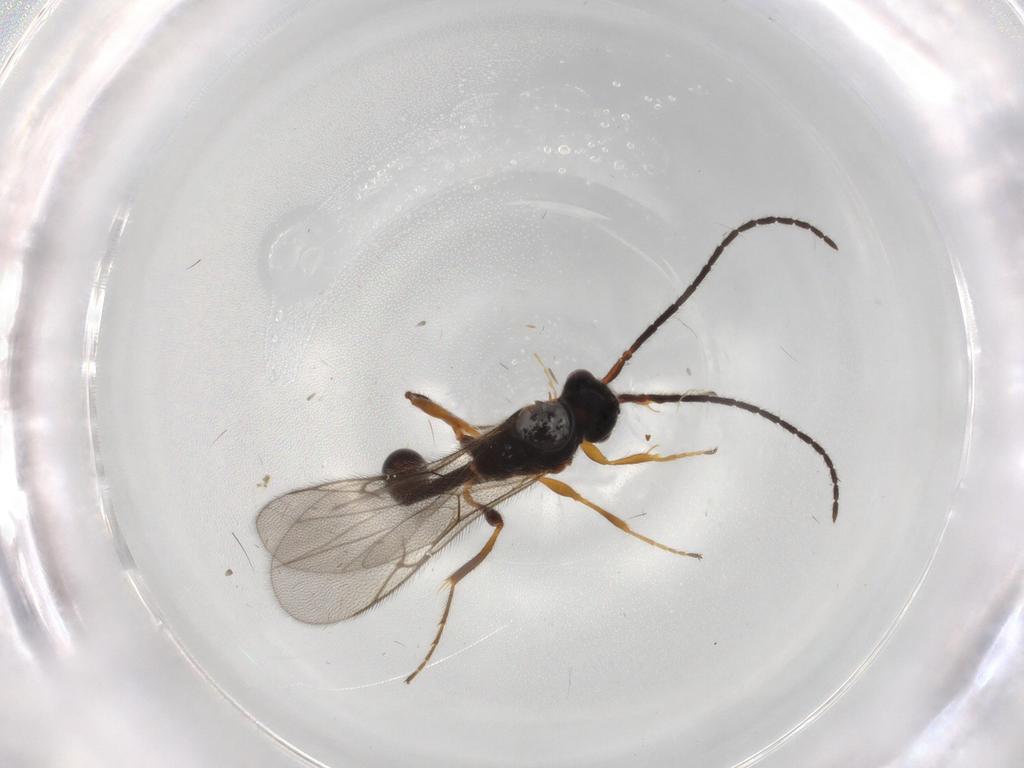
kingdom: Animalia
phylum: Arthropoda
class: Insecta
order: Hymenoptera
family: Diapriidae
